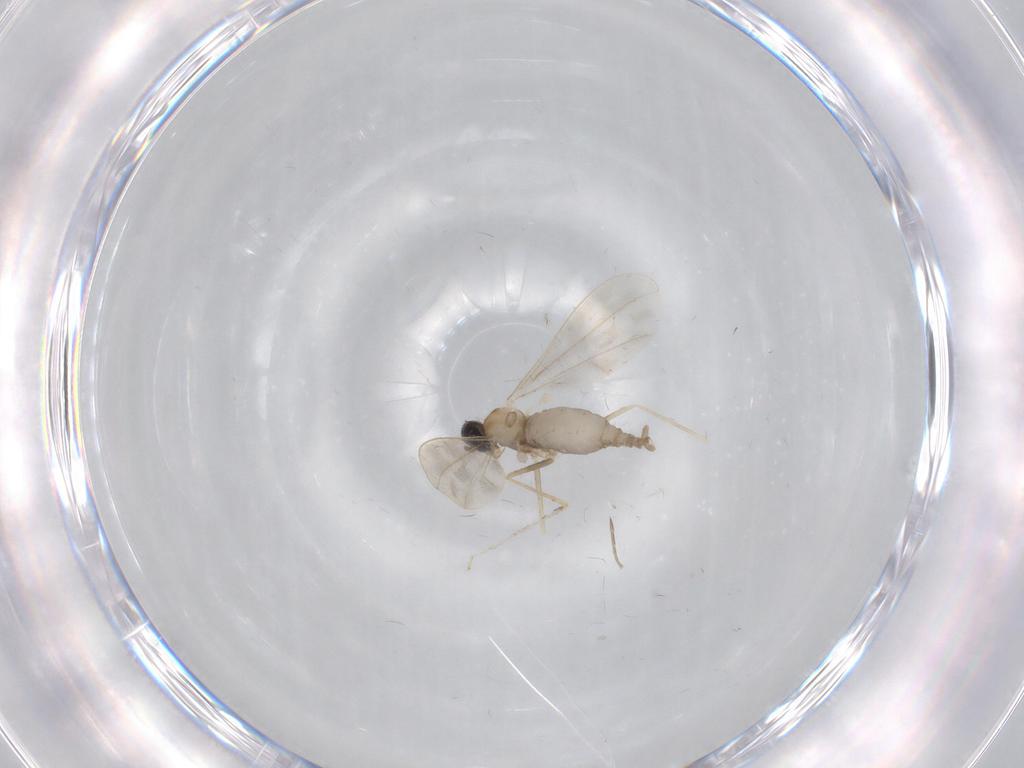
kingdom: Animalia
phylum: Arthropoda
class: Insecta
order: Diptera
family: Cecidomyiidae
